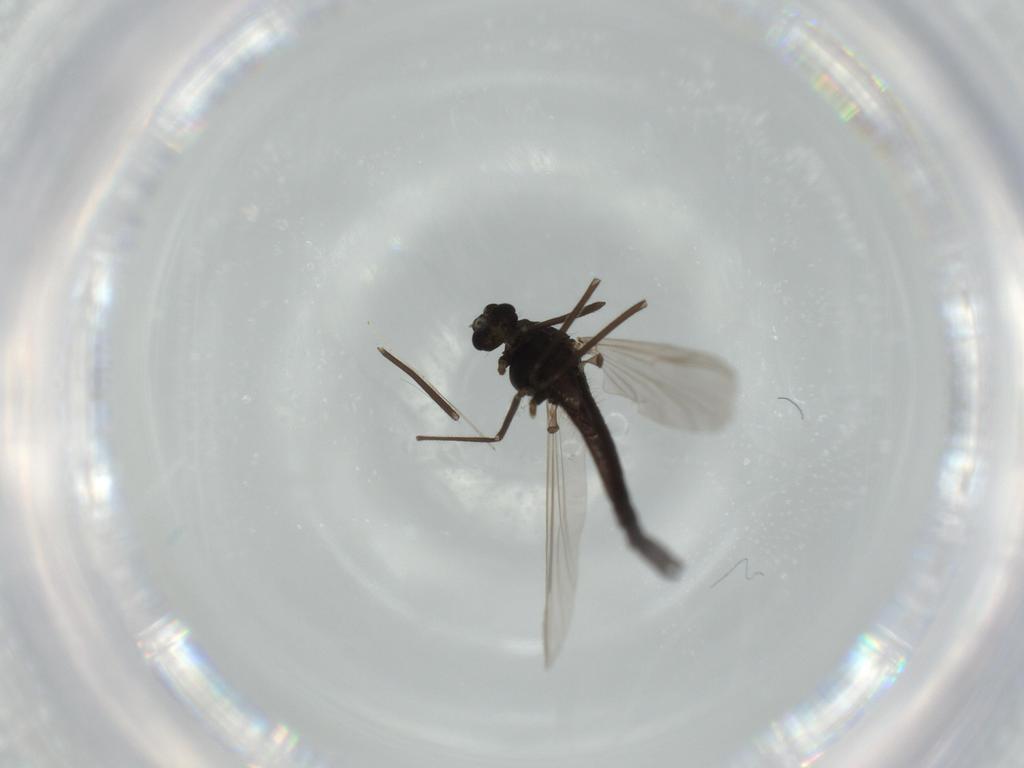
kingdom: Animalia
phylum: Arthropoda
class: Insecta
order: Diptera
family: Chironomidae
